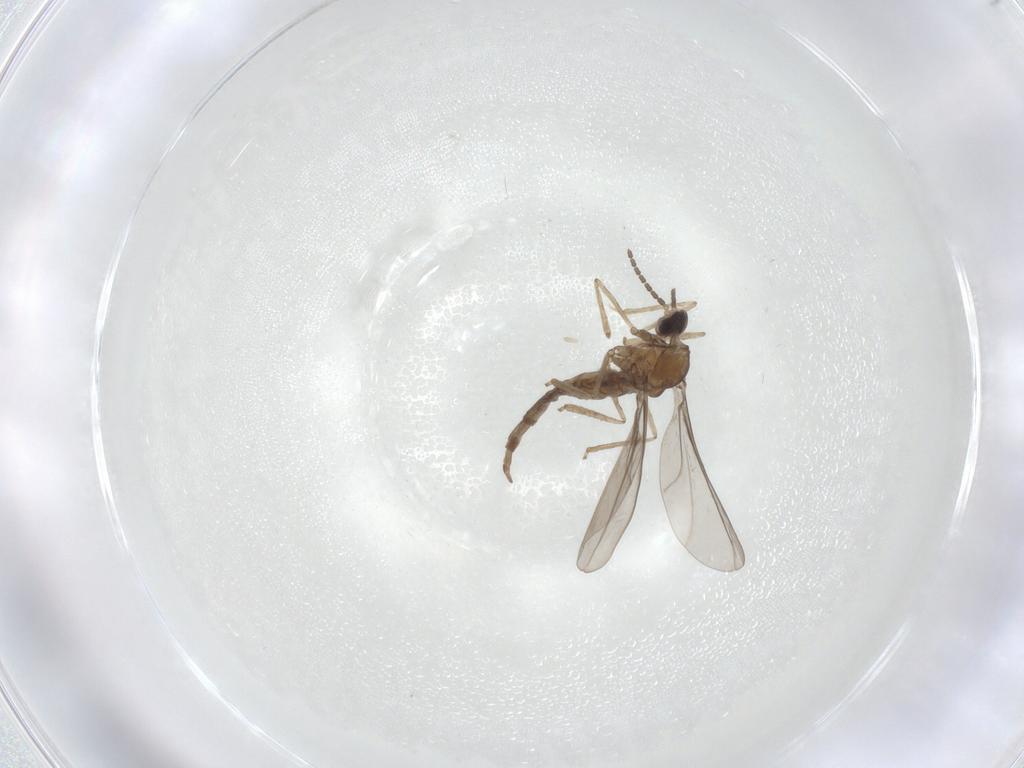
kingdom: Animalia
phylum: Arthropoda
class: Insecta
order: Diptera
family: Cecidomyiidae
